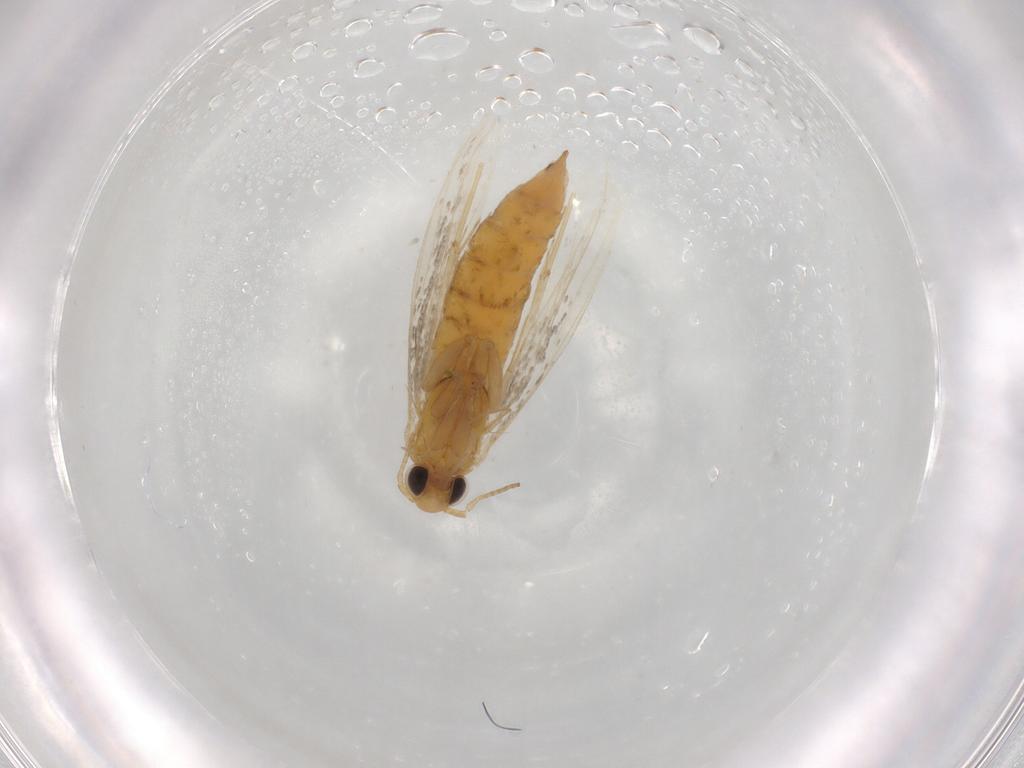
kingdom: Animalia
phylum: Arthropoda
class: Insecta
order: Lepidoptera
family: Gracillariidae
